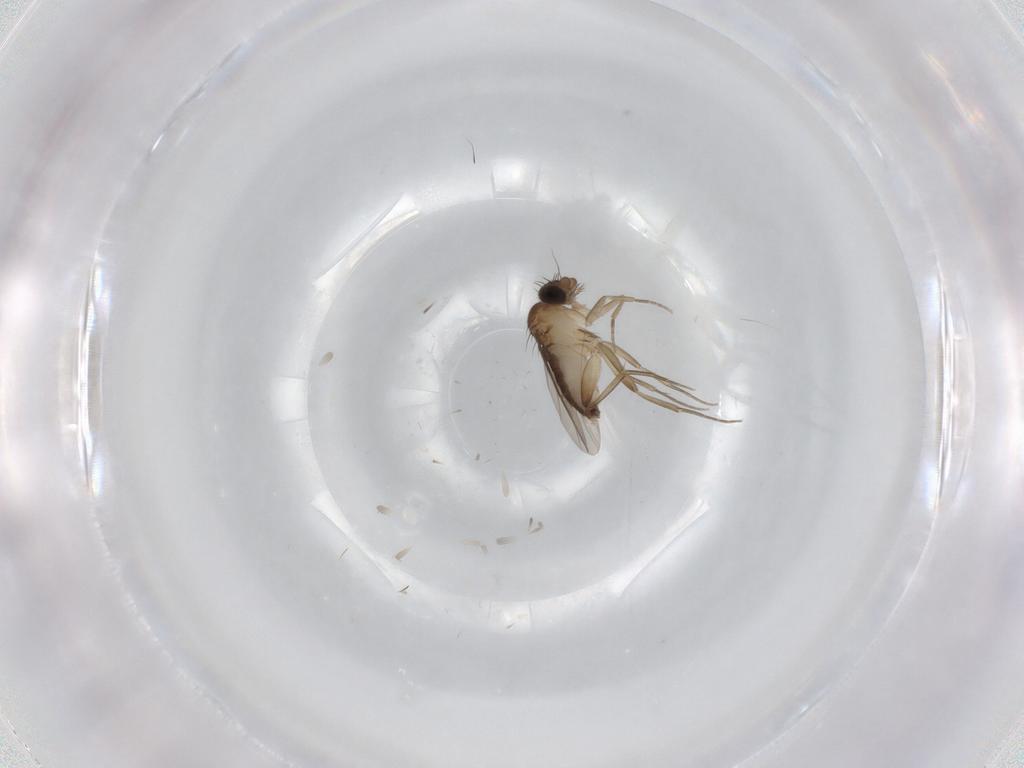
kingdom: Animalia
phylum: Arthropoda
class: Insecta
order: Diptera
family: Phoridae
